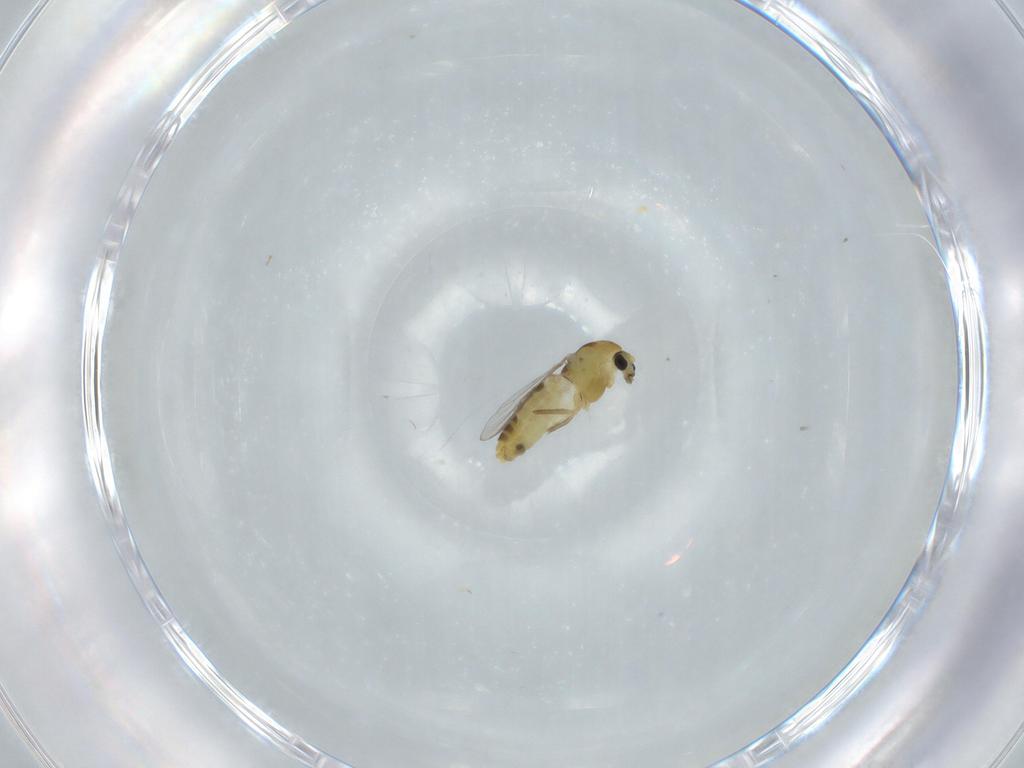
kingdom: Animalia
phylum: Arthropoda
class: Insecta
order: Diptera
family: Chironomidae
